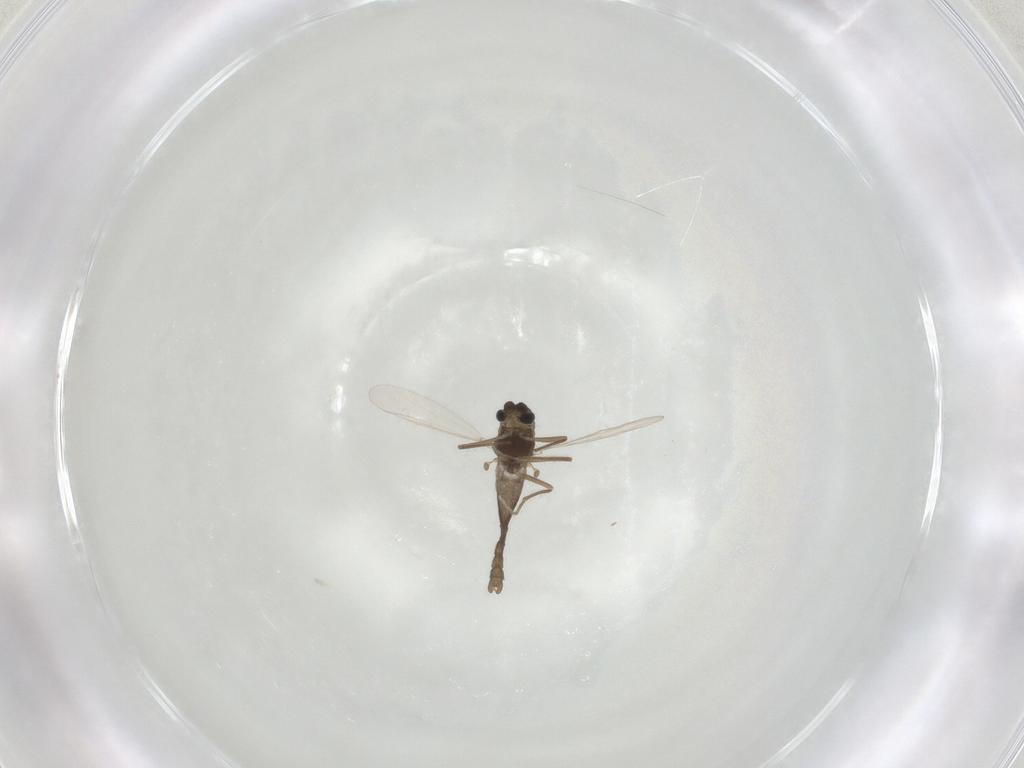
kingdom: Animalia
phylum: Arthropoda
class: Insecta
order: Diptera
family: Chironomidae
